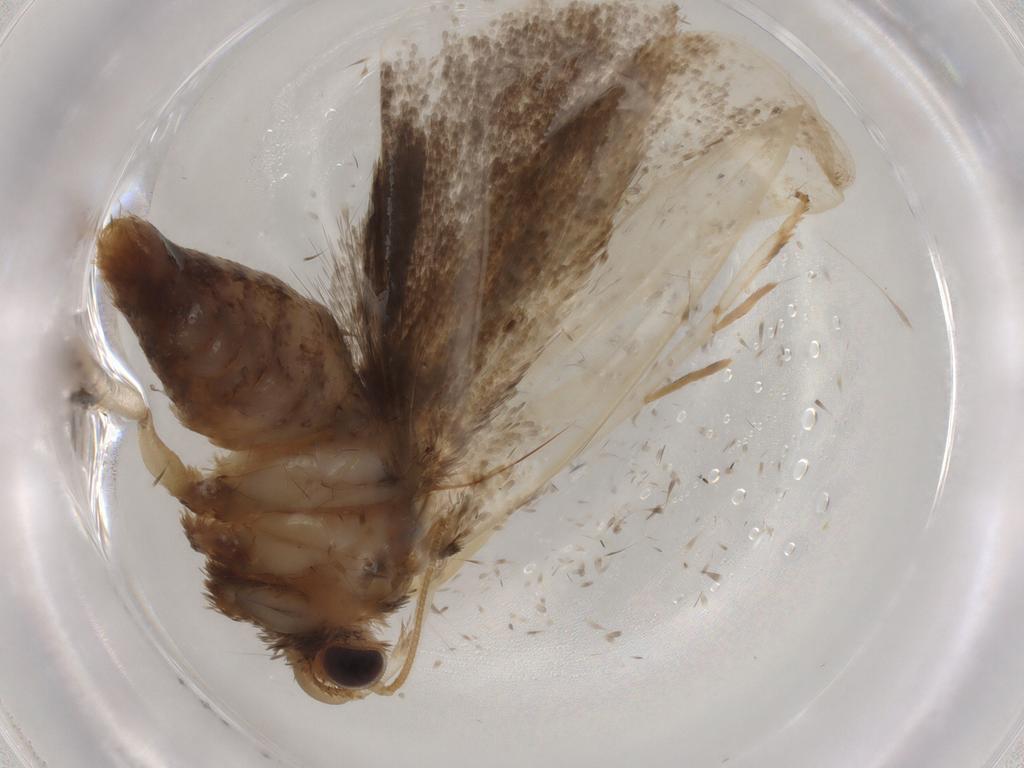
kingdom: Animalia
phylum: Arthropoda
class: Insecta
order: Lepidoptera
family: Tineidae
